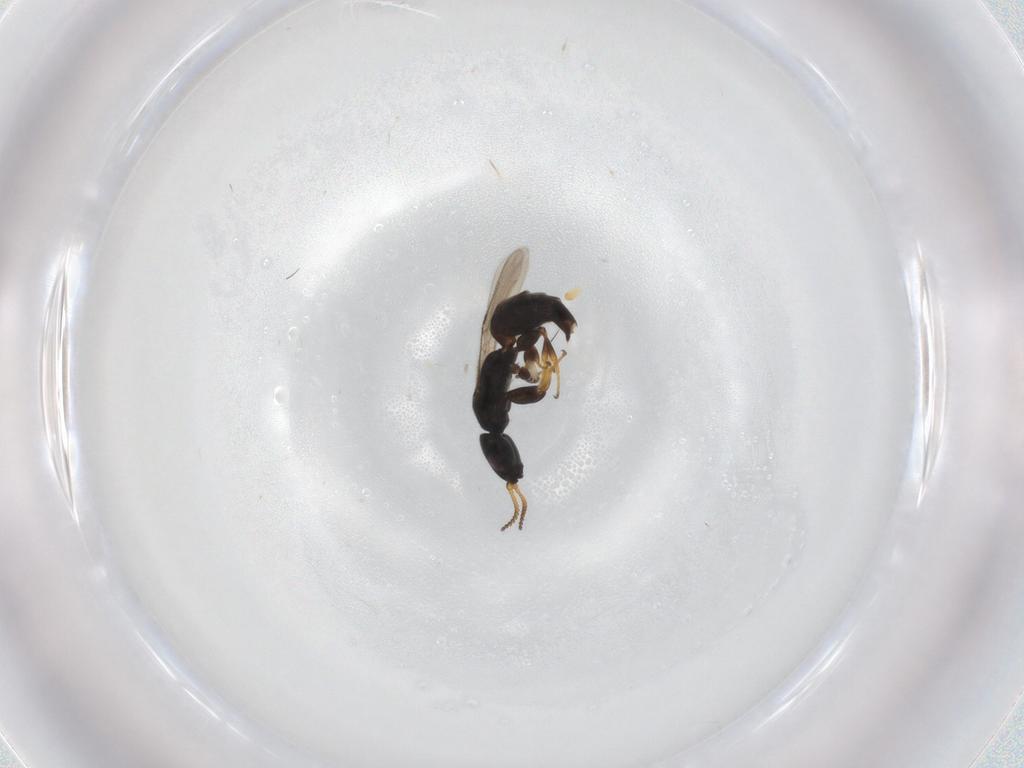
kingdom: Animalia
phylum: Arthropoda
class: Insecta
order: Hymenoptera
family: Bethylidae
